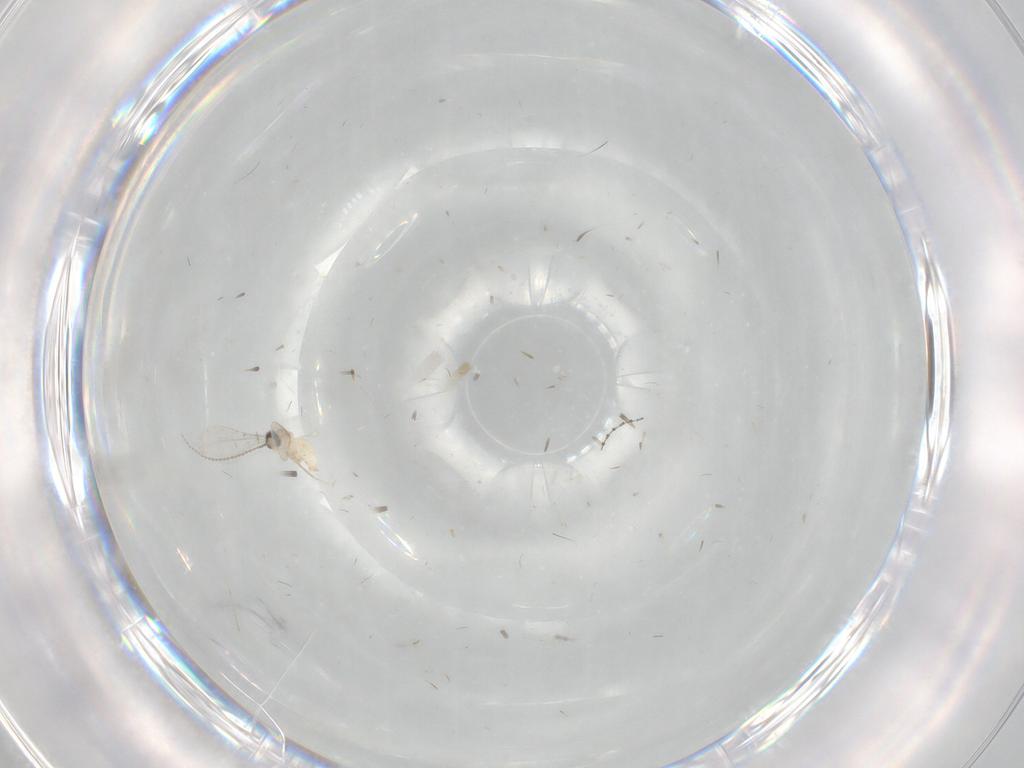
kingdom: Animalia
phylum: Arthropoda
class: Insecta
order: Diptera
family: Cecidomyiidae
